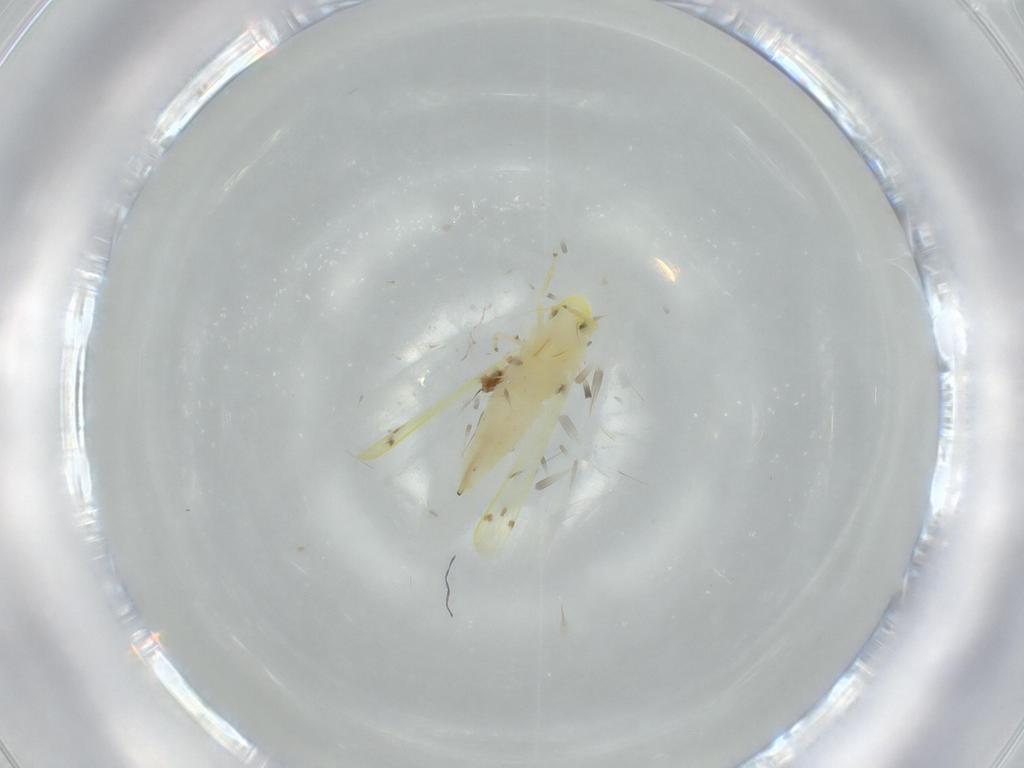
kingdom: Animalia
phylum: Arthropoda
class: Insecta
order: Hemiptera
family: Cicadellidae
